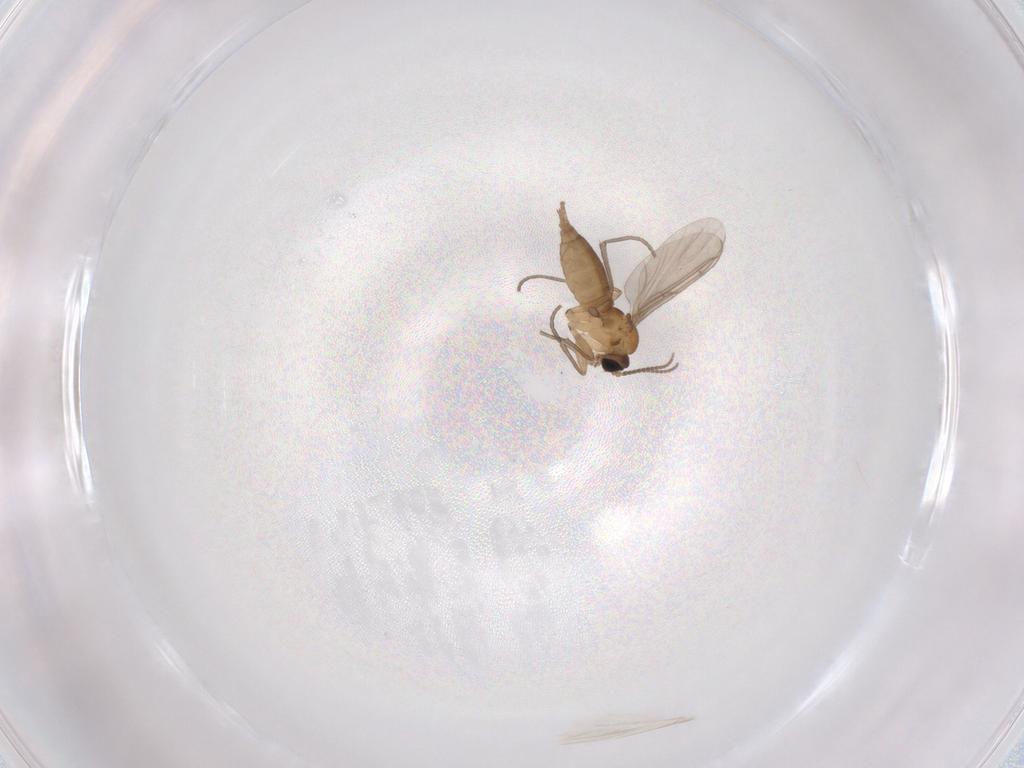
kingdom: Animalia
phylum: Arthropoda
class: Insecta
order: Diptera
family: Sciaridae
